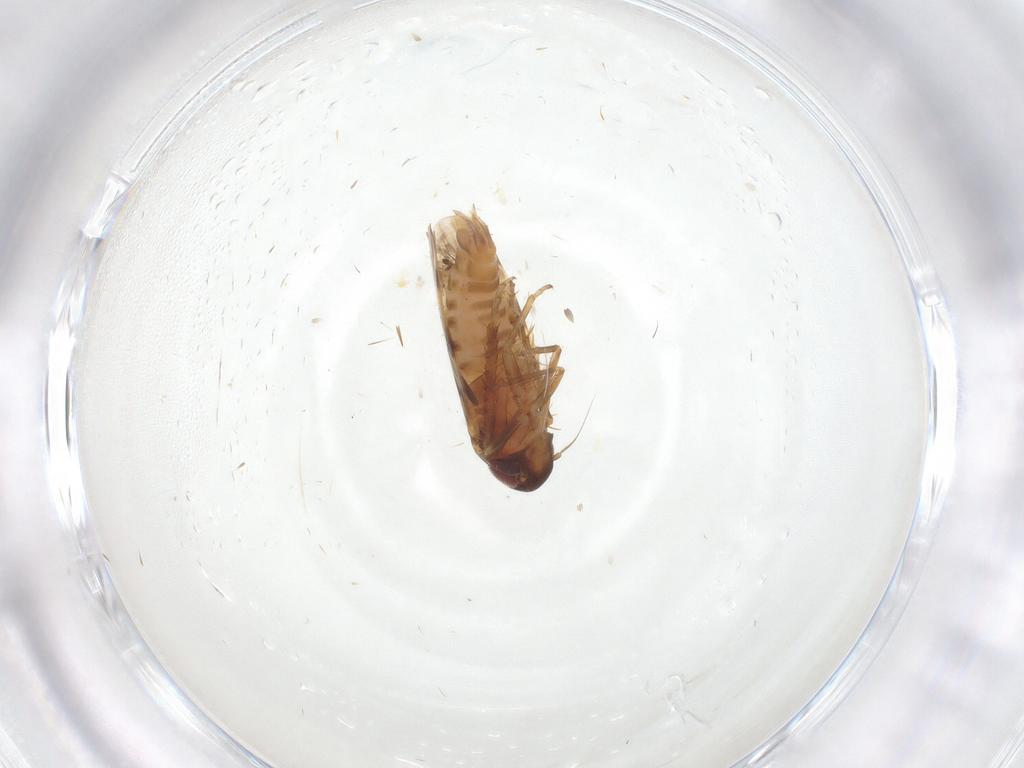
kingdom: Animalia
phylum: Arthropoda
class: Insecta
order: Hemiptera
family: Cicadellidae
